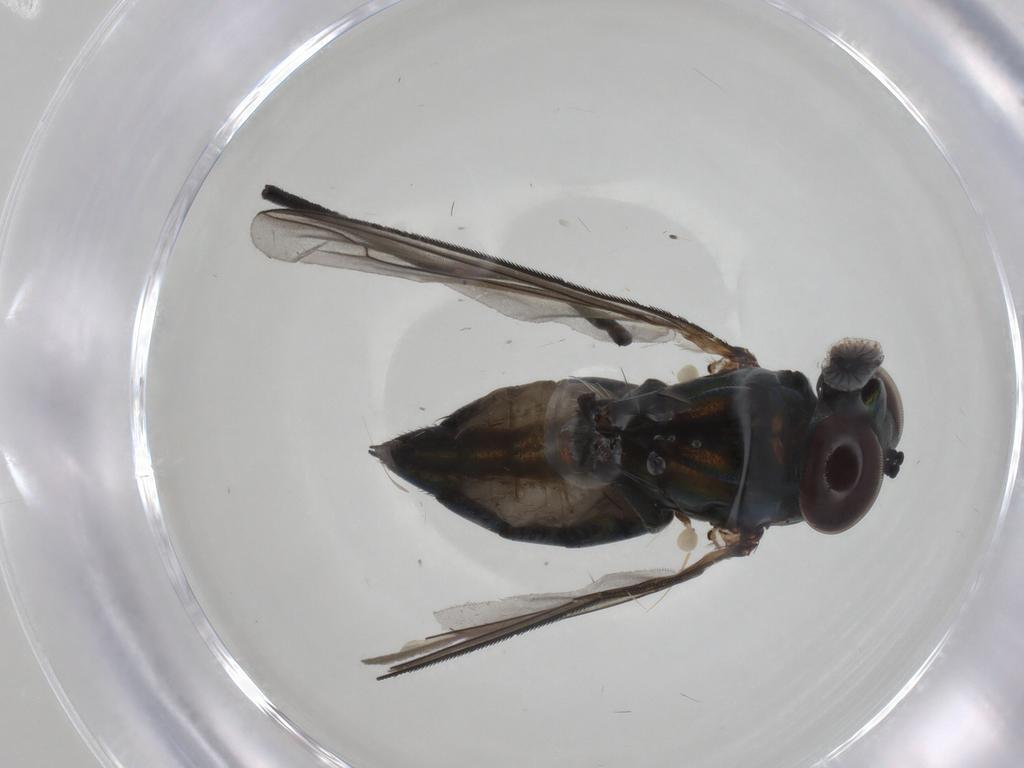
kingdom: Animalia
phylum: Arthropoda
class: Insecta
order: Diptera
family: Dolichopodidae
